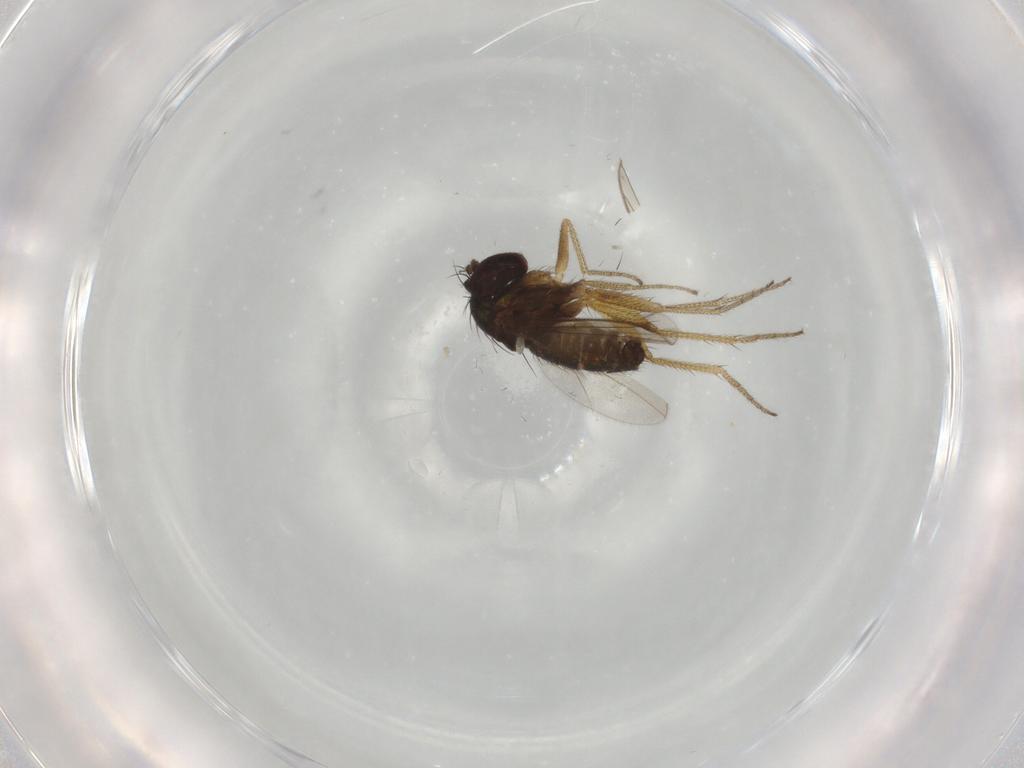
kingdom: Animalia
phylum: Arthropoda
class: Insecta
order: Diptera
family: Dolichopodidae
